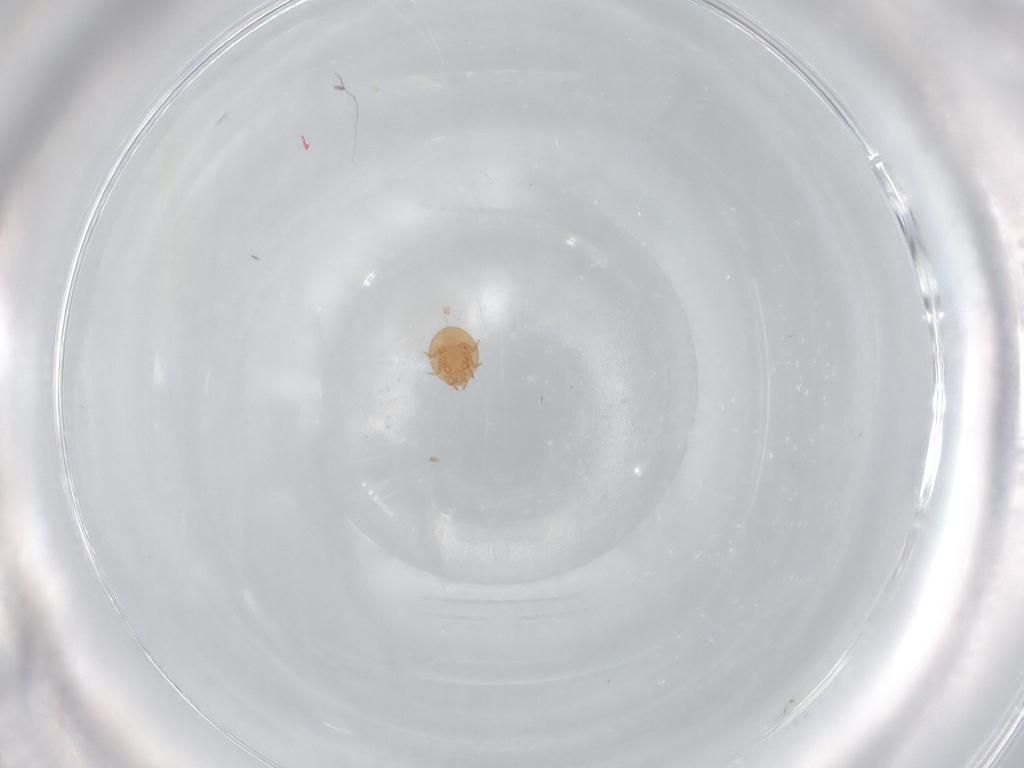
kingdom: Animalia
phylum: Arthropoda
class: Arachnida
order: Mesostigmata
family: Trematuridae
